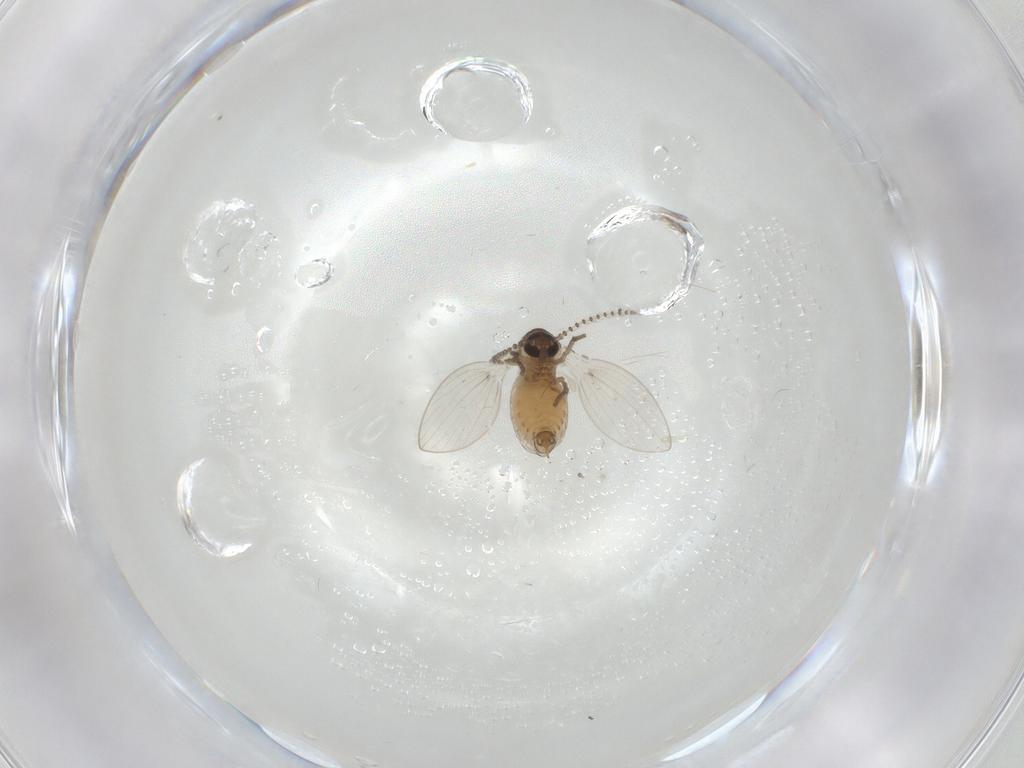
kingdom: Animalia
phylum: Arthropoda
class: Insecta
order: Diptera
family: Psychodidae
